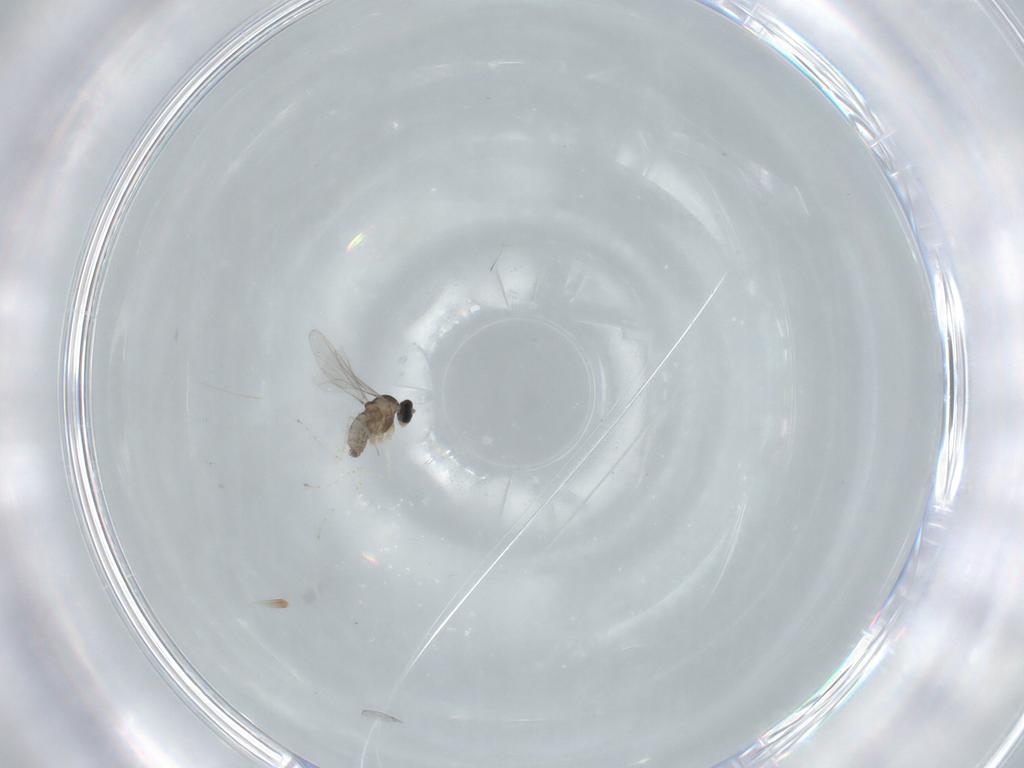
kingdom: Animalia
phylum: Arthropoda
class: Insecta
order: Diptera
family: Cecidomyiidae
